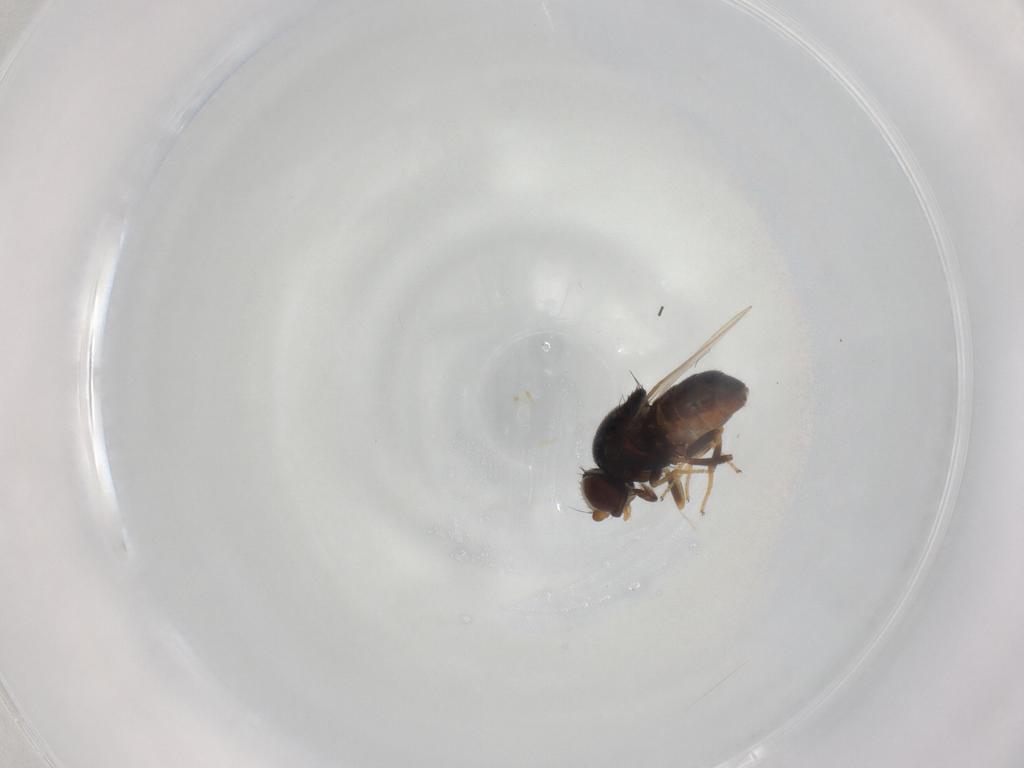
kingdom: Animalia
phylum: Arthropoda
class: Insecta
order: Diptera
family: Chloropidae
